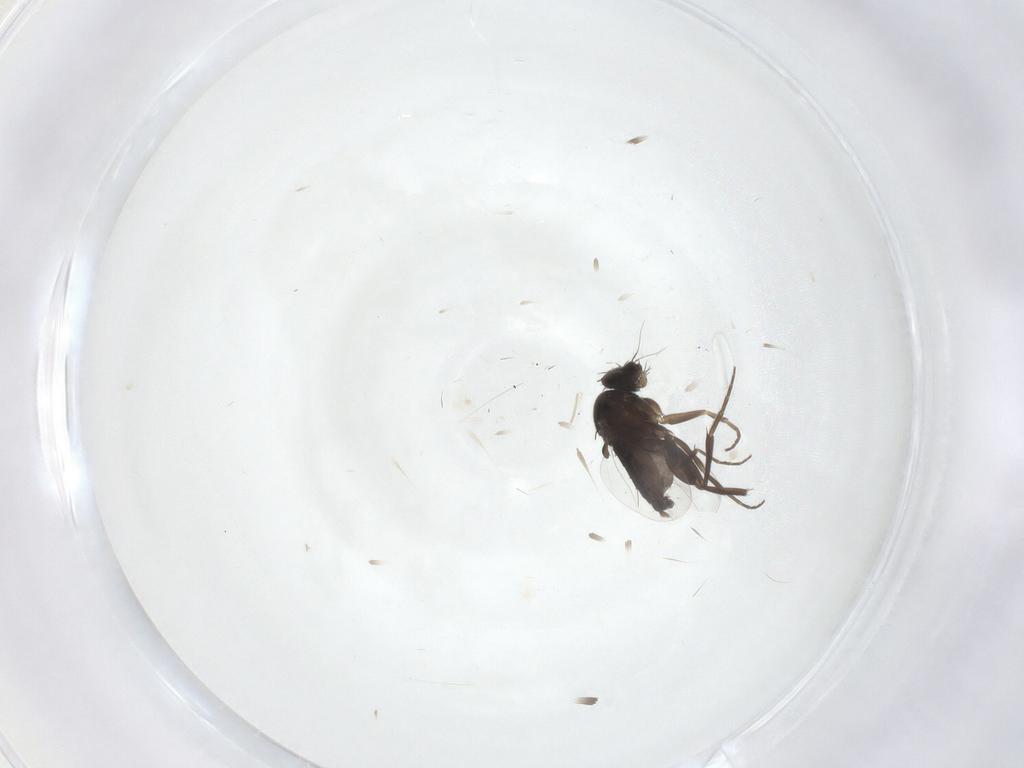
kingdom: Animalia
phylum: Arthropoda
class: Insecta
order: Diptera
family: Phoridae
